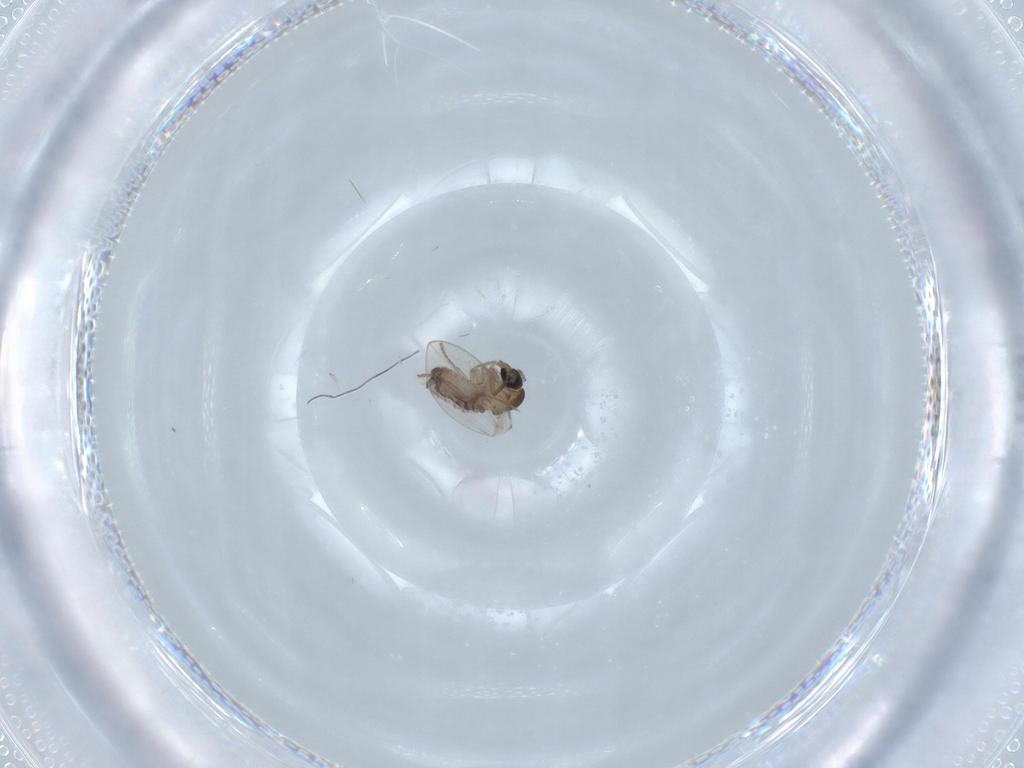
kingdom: Animalia
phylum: Arthropoda
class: Insecta
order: Diptera
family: Psychodidae
